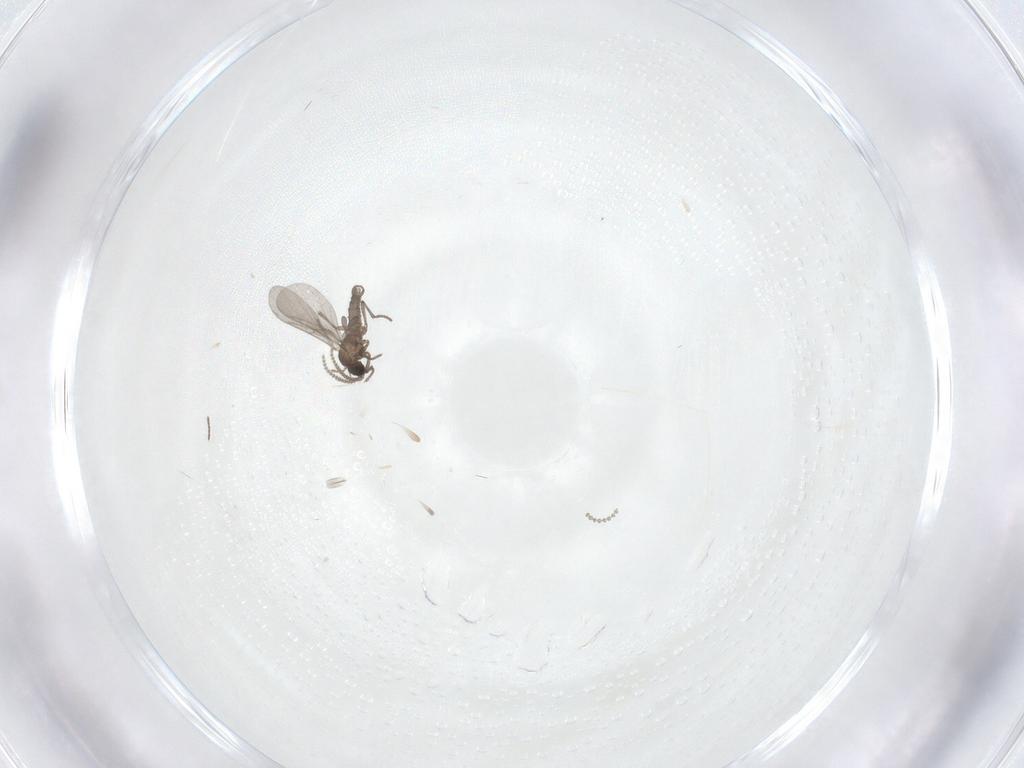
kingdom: Animalia
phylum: Arthropoda
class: Insecta
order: Diptera
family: Cecidomyiidae
